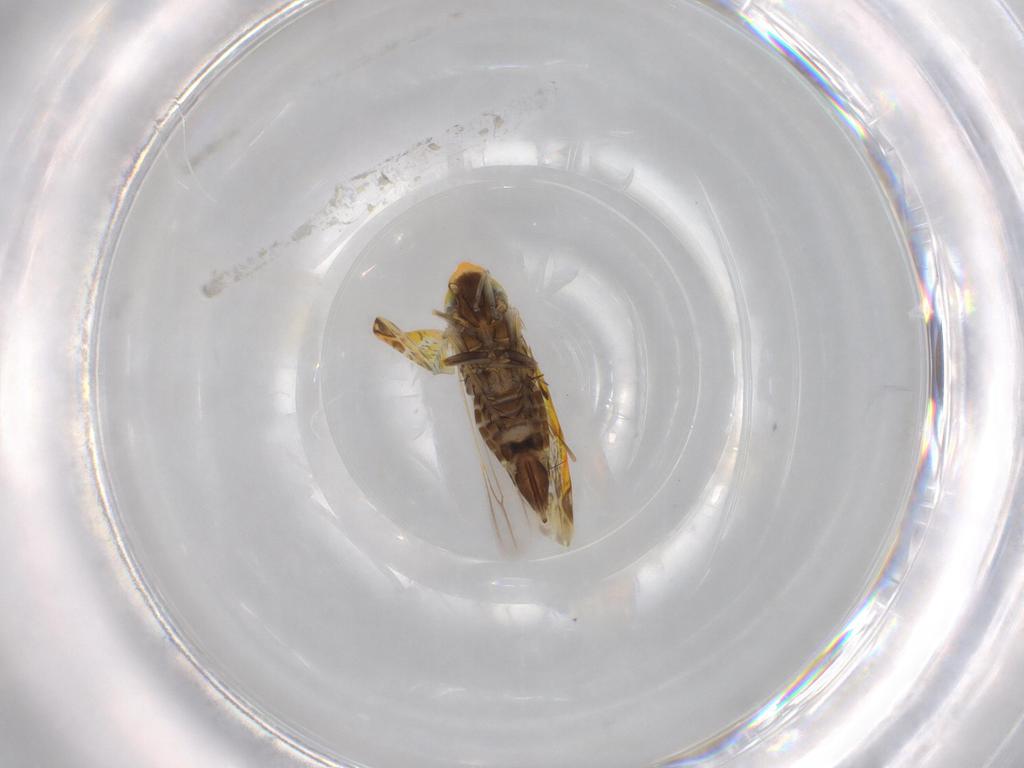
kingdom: Animalia
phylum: Arthropoda
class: Insecta
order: Hemiptera
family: Cicadellidae
